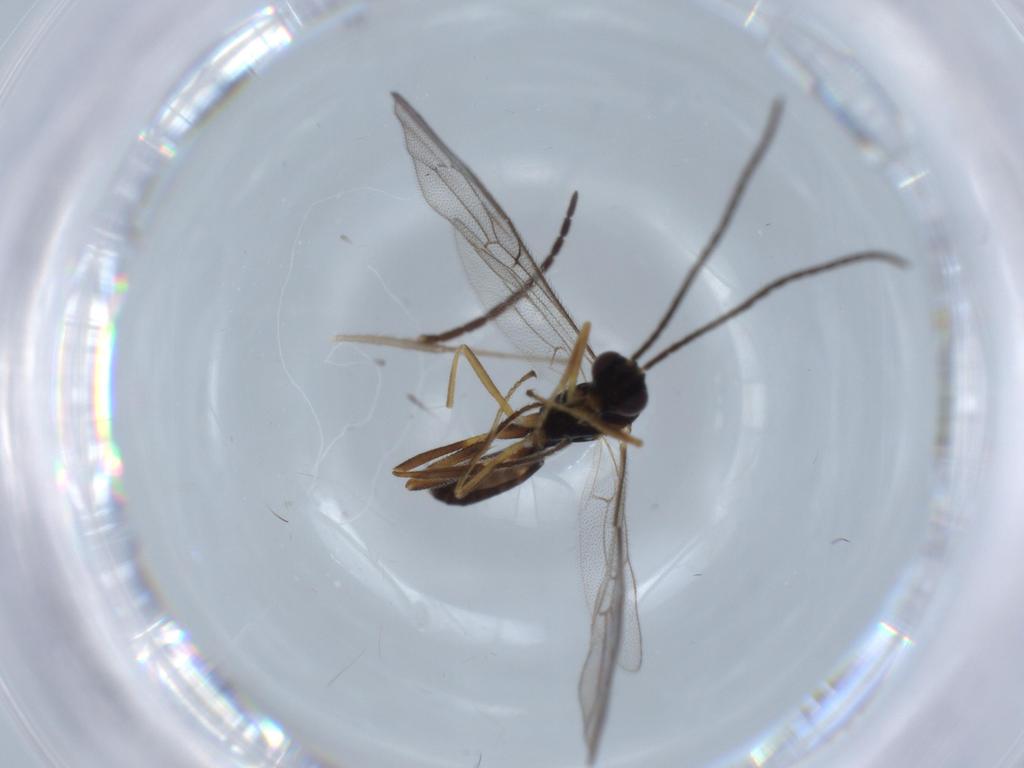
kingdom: Animalia
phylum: Arthropoda
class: Insecta
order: Hymenoptera
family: Ichneumonidae
